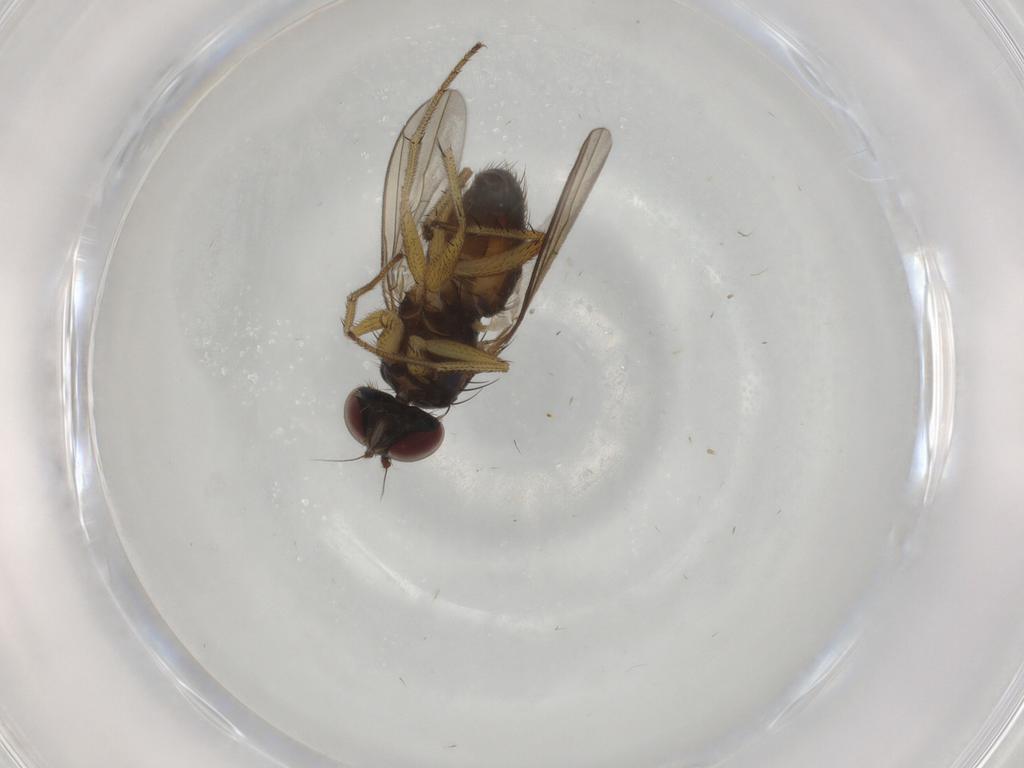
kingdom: Animalia
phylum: Arthropoda
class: Insecta
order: Diptera
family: Dolichopodidae
